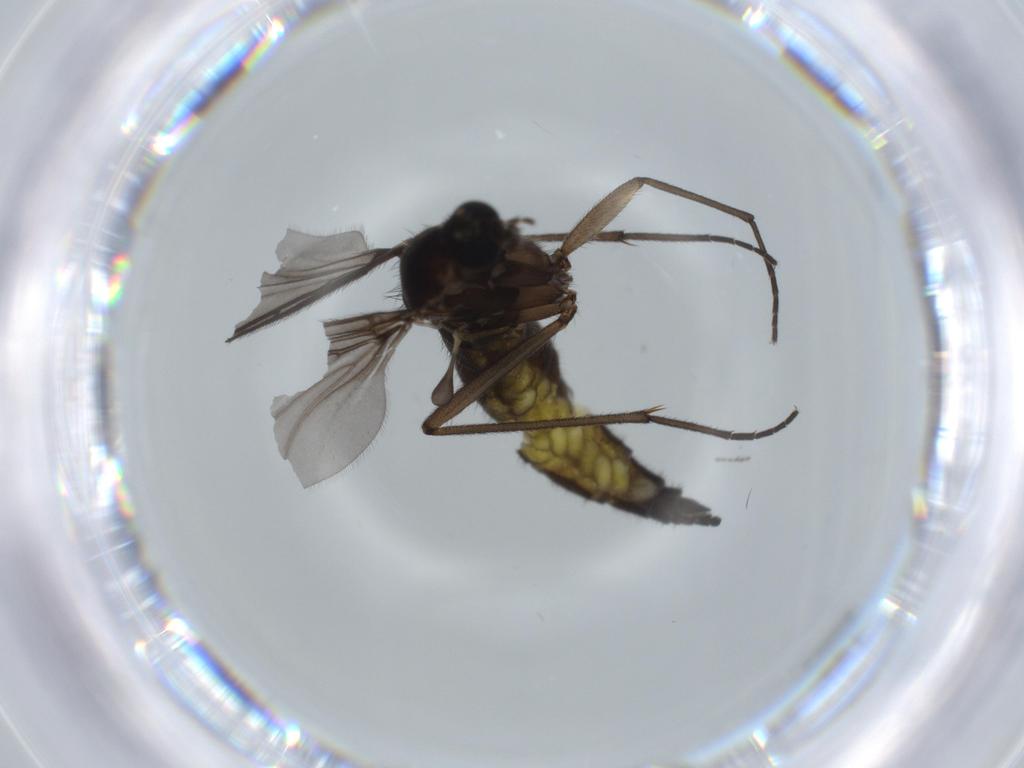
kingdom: Animalia
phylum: Arthropoda
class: Insecta
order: Diptera
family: Sciaridae
